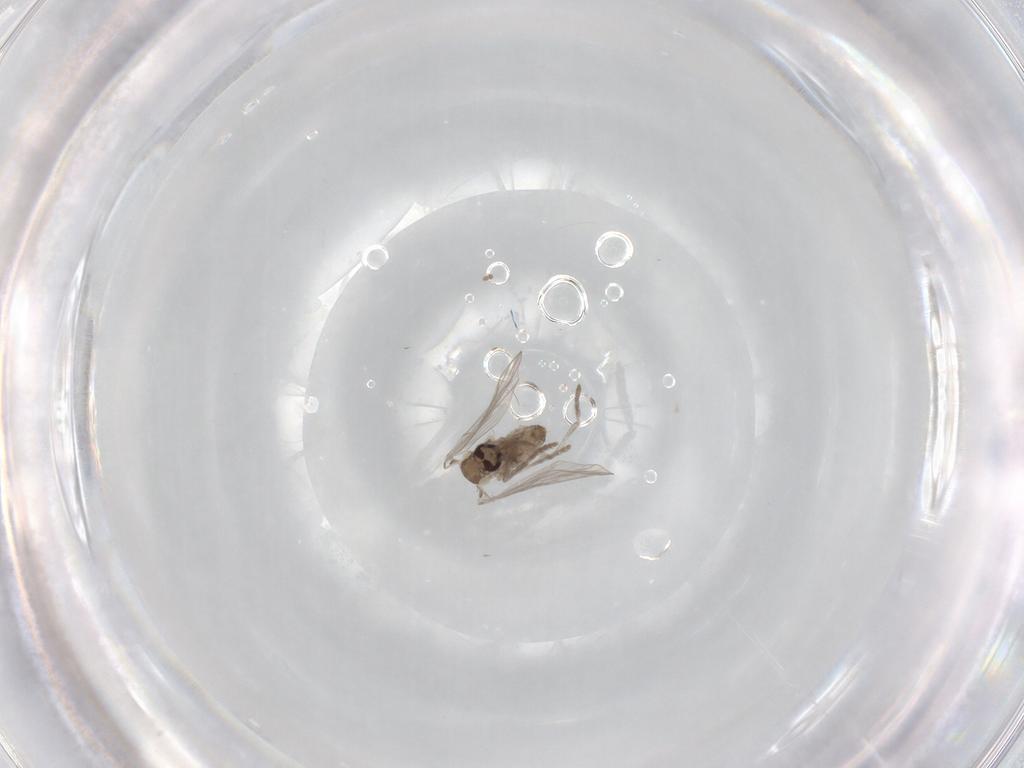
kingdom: Animalia
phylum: Arthropoda
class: Insecta
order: Diptera
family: Psychodidae
